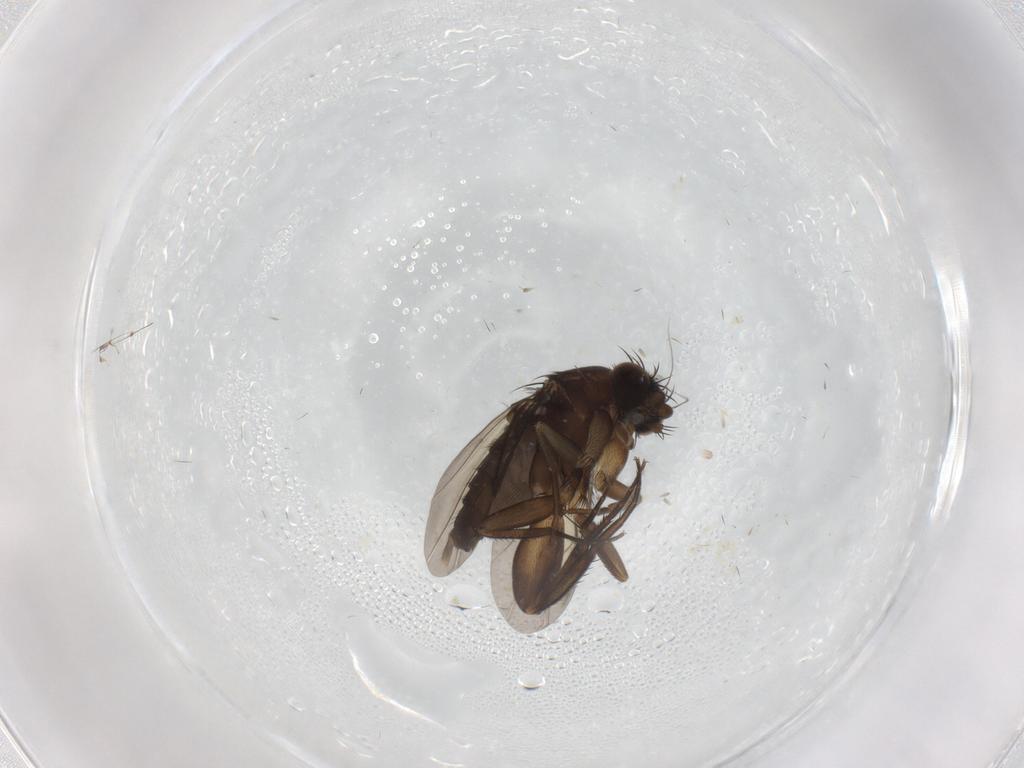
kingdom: Animalia
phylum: Arthropoda
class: Insecta
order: Diptera
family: Phoridae
